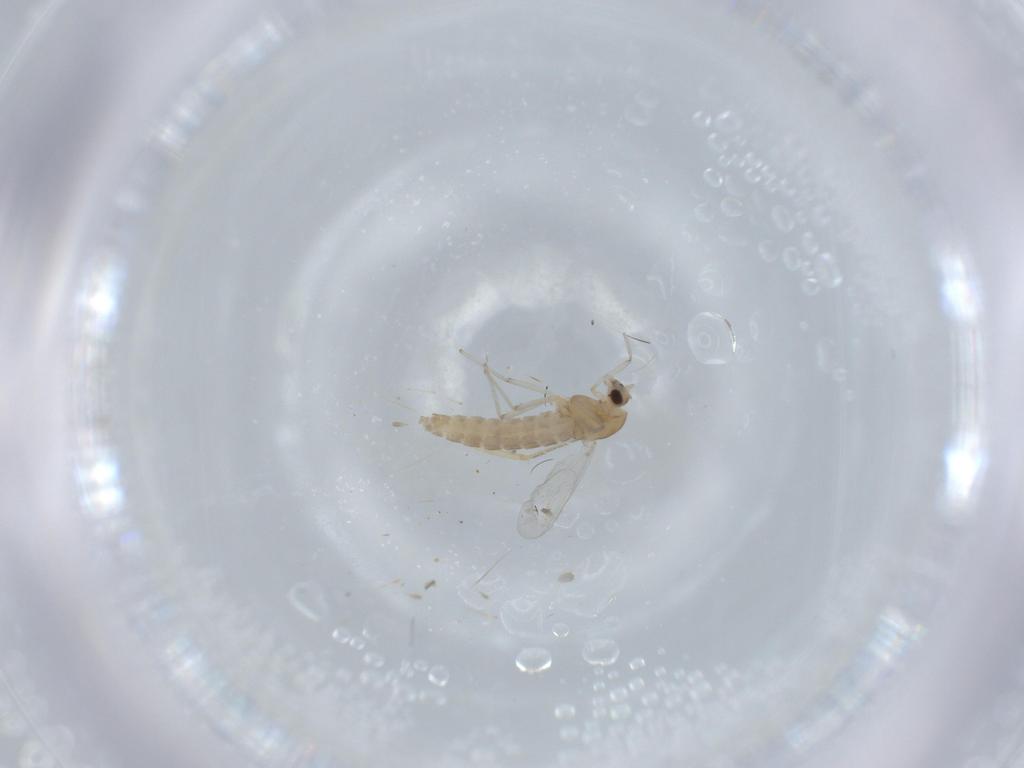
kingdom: Animalia
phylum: Arthropoda
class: Insecta
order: Diptera
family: Chironomidae
